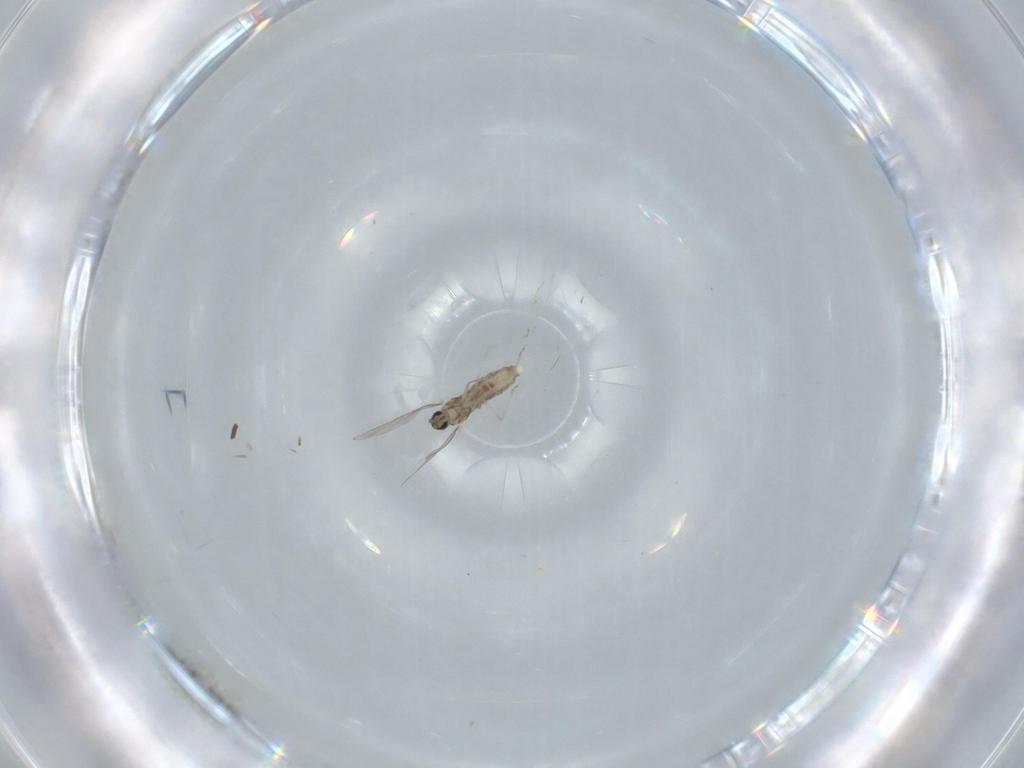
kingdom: Animalia
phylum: Arthropoda
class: Insecta
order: Diptera
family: Cecidomyiidae
